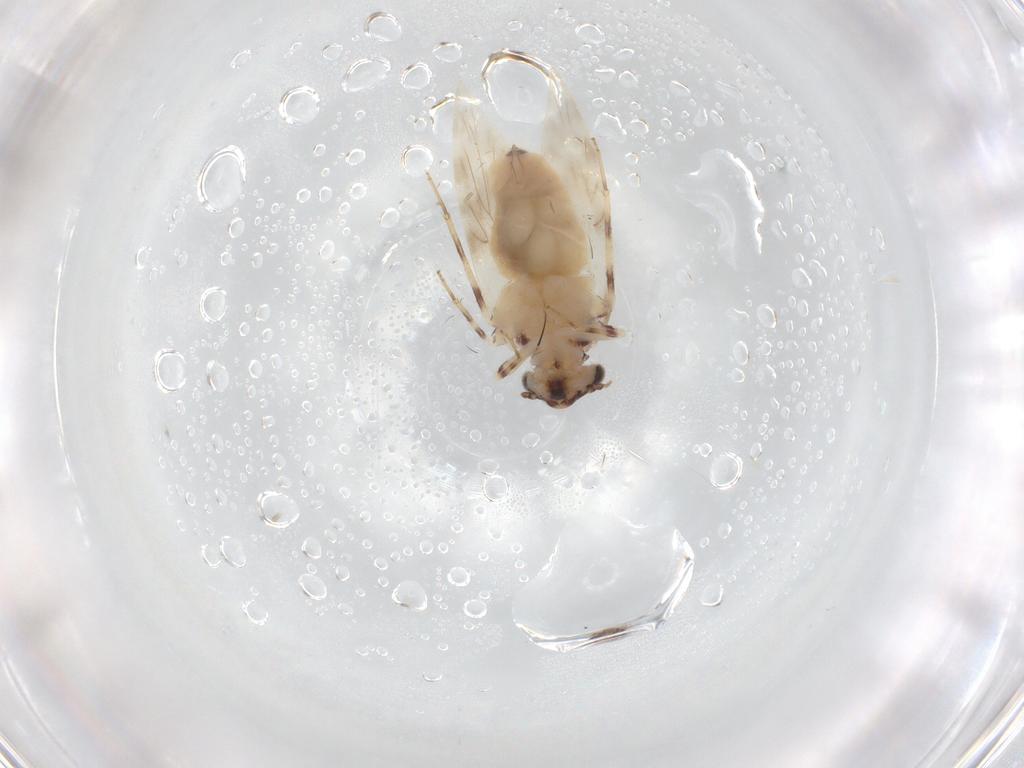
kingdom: Animalia
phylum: Arthropoda
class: Insecta
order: Psocodea
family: Lepidopsocidae
